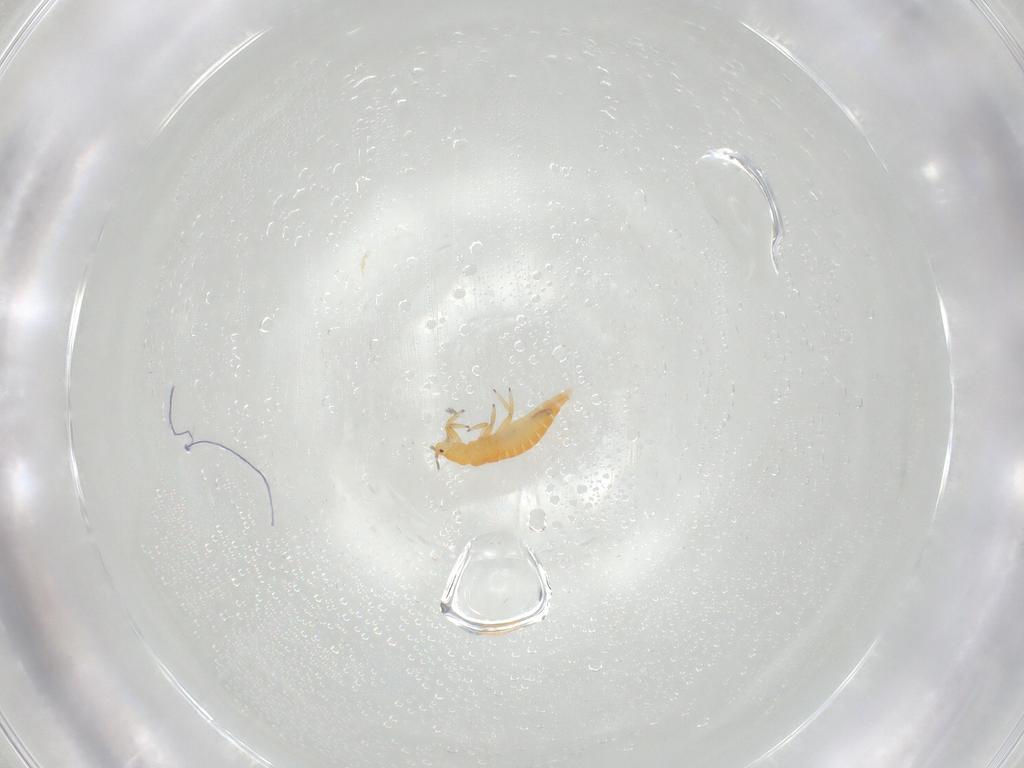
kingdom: Animalia
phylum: Arthropoda
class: Insecta
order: Thysanoptera
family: Aeolothripidae
